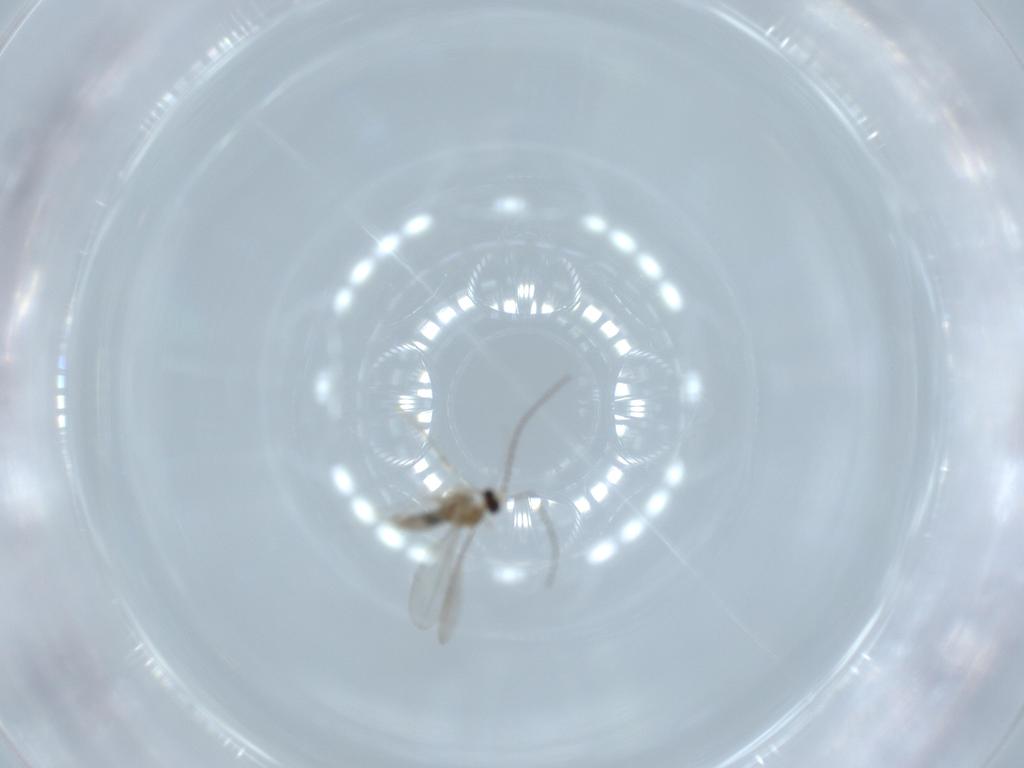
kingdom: Animalia
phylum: Arthropoda
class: Insecta
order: Diptera
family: Cecidomyiidae
